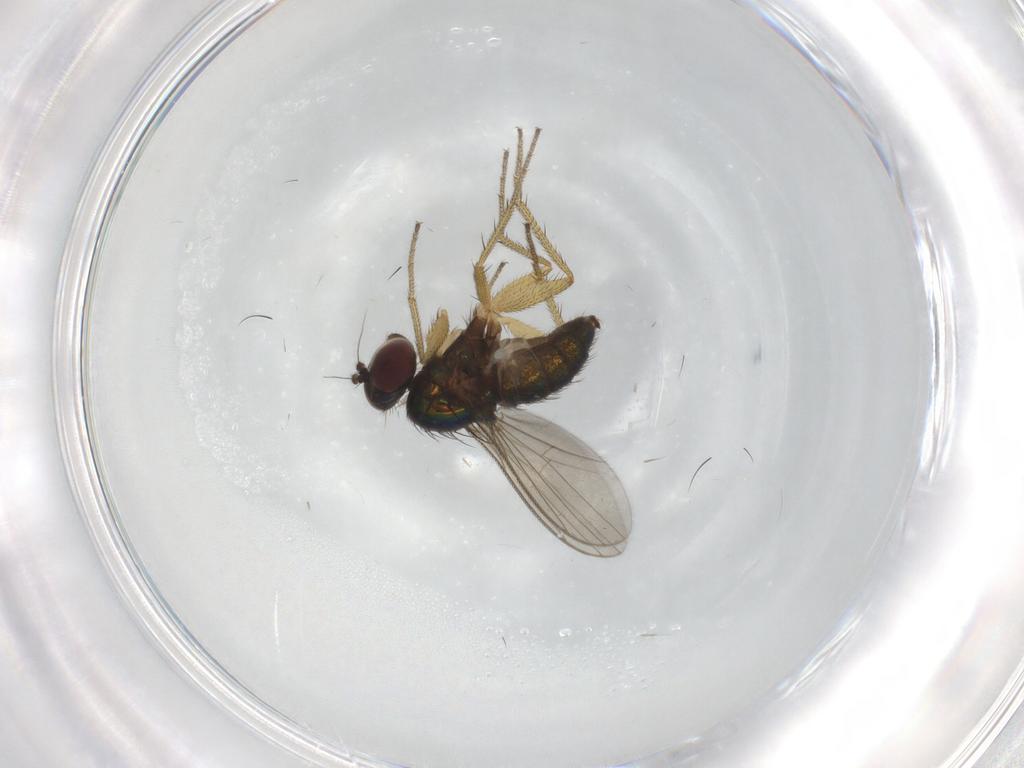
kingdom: Animalia
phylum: Arthropoda
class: Insecta
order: Diptera
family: Dolichopodidae
